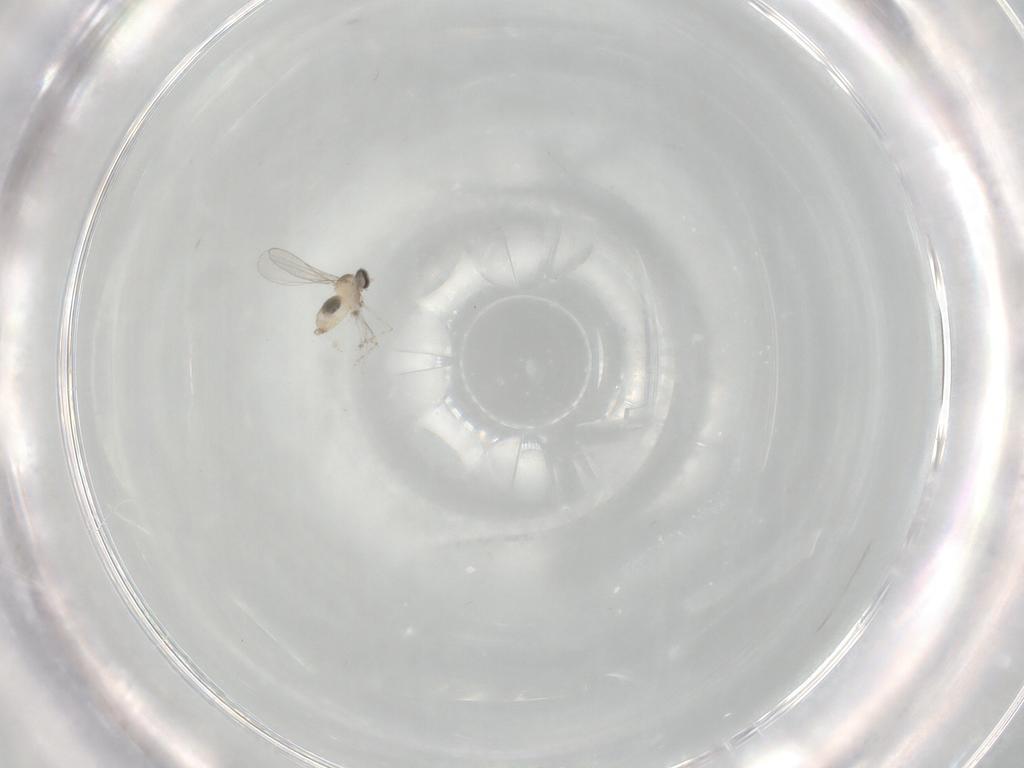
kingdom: Animalia
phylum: Arthropoda
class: Insecta
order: Diptera
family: Cecidomyiidae
